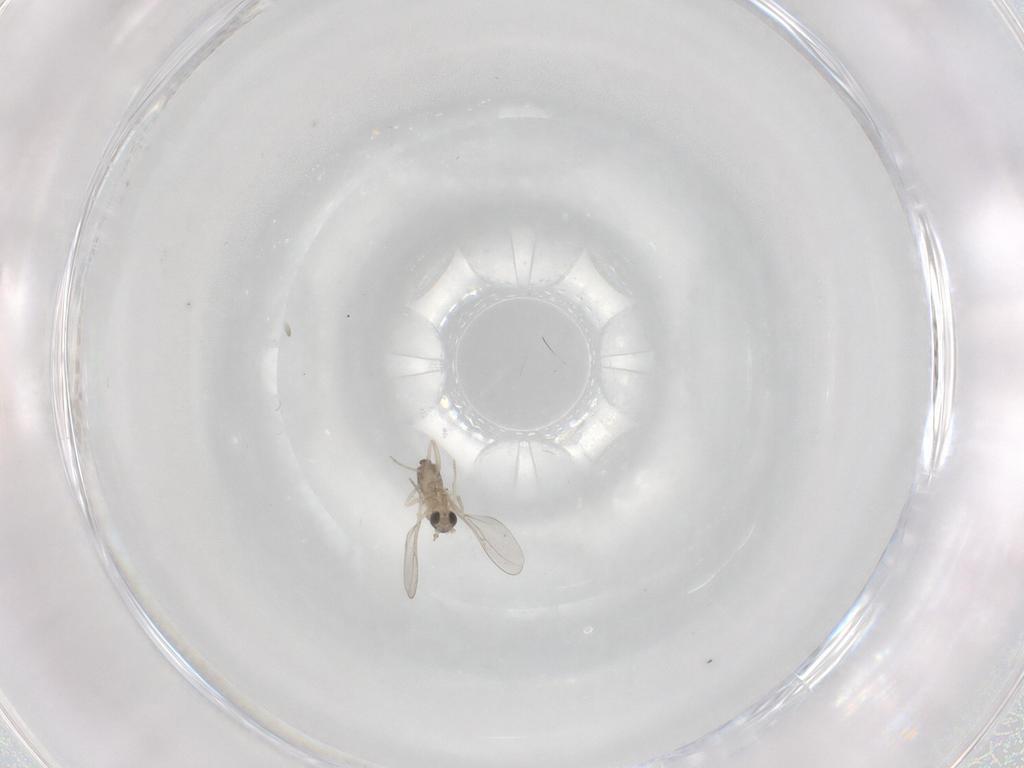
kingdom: Animalia
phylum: Arthropoda
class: Insecta
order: Diptera
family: Cecidomyiidae
